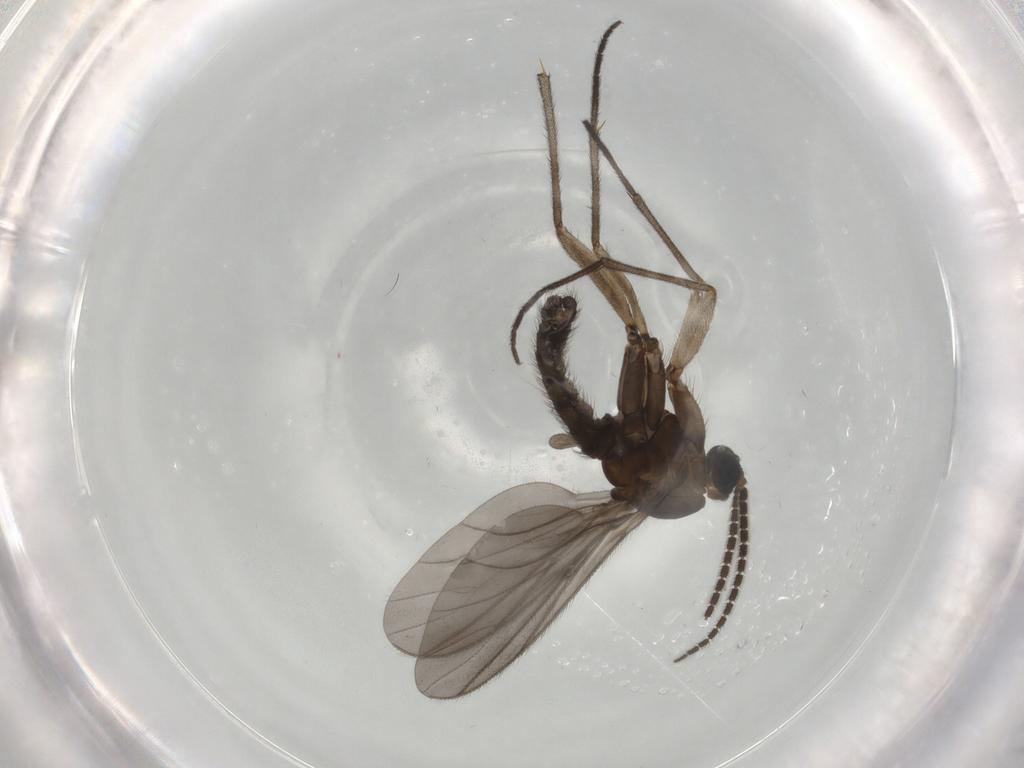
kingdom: Animalia
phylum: Arthropoda
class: Insecta
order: Diptera
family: Sciaridae
